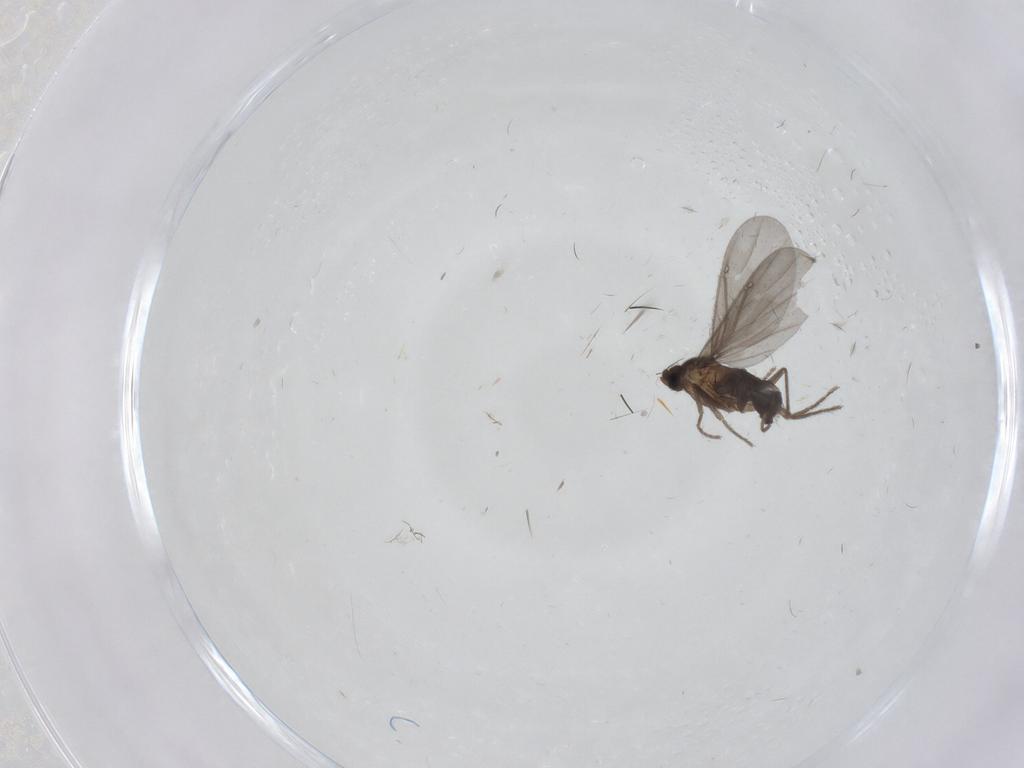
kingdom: Animalia
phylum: Arthropoda
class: Insecta
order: Diptera
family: Phoridae
